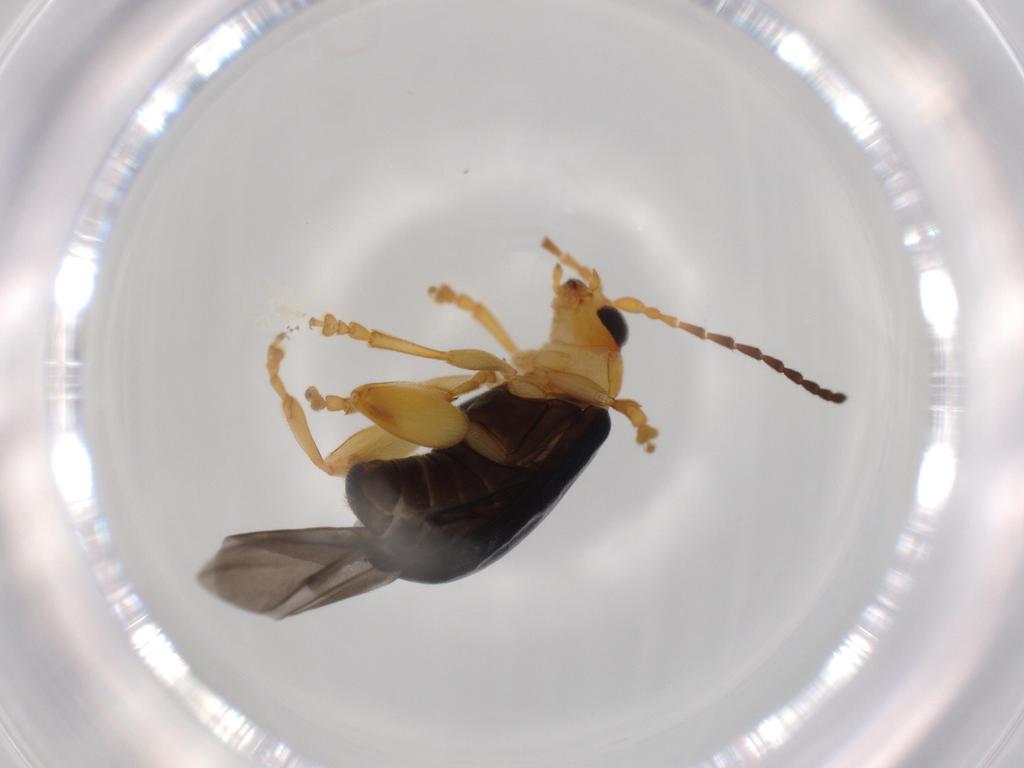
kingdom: Animalia
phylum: Arthropoda
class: Insecta
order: Coleoptera
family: Chrysomelidae
